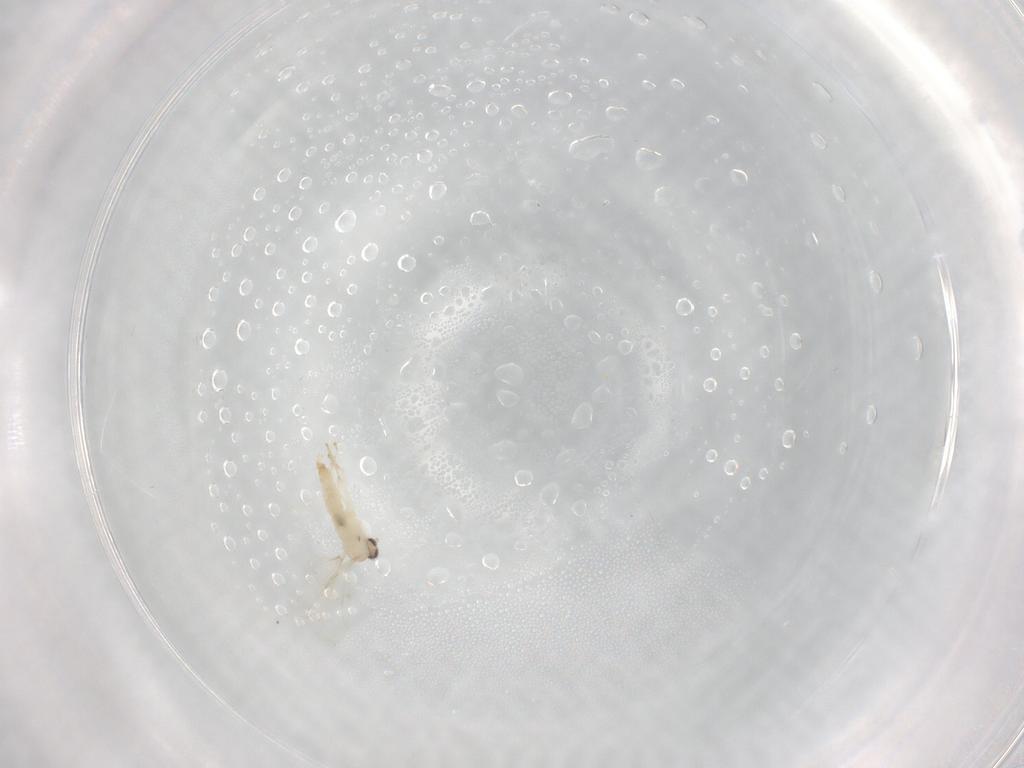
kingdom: Animalia
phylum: Arthropoda
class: Insecta
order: Diptera
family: Cecidomyiidae
